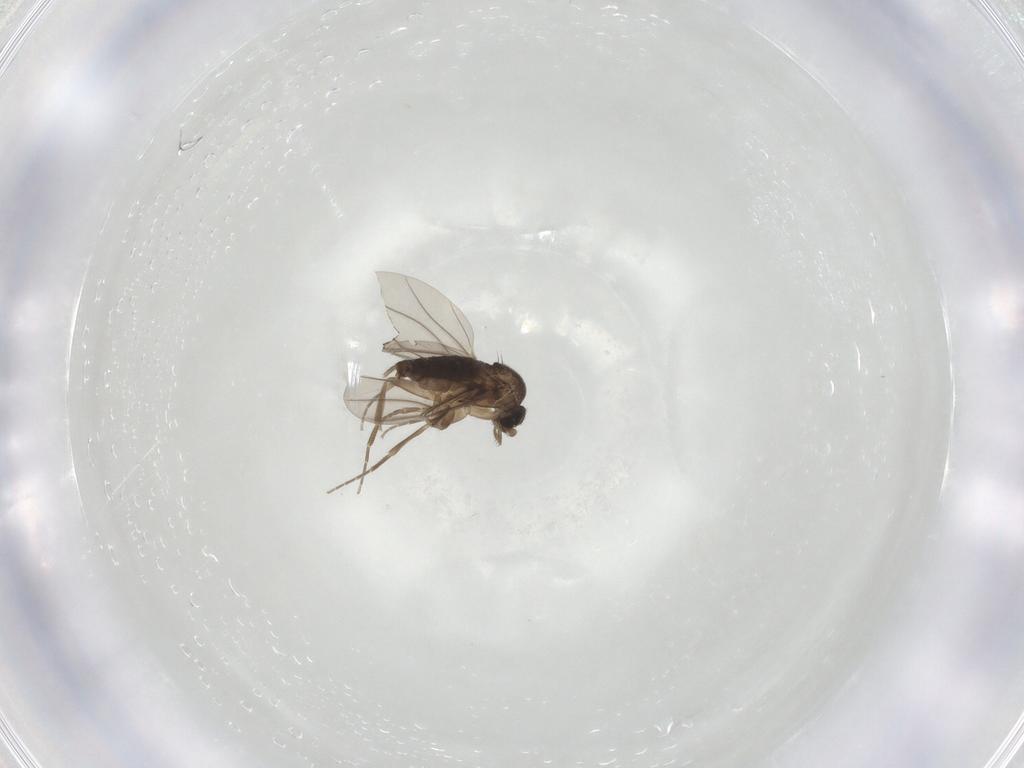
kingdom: Animalia
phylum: Arthropoda
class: Insecta
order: Diptera
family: Phoridae
